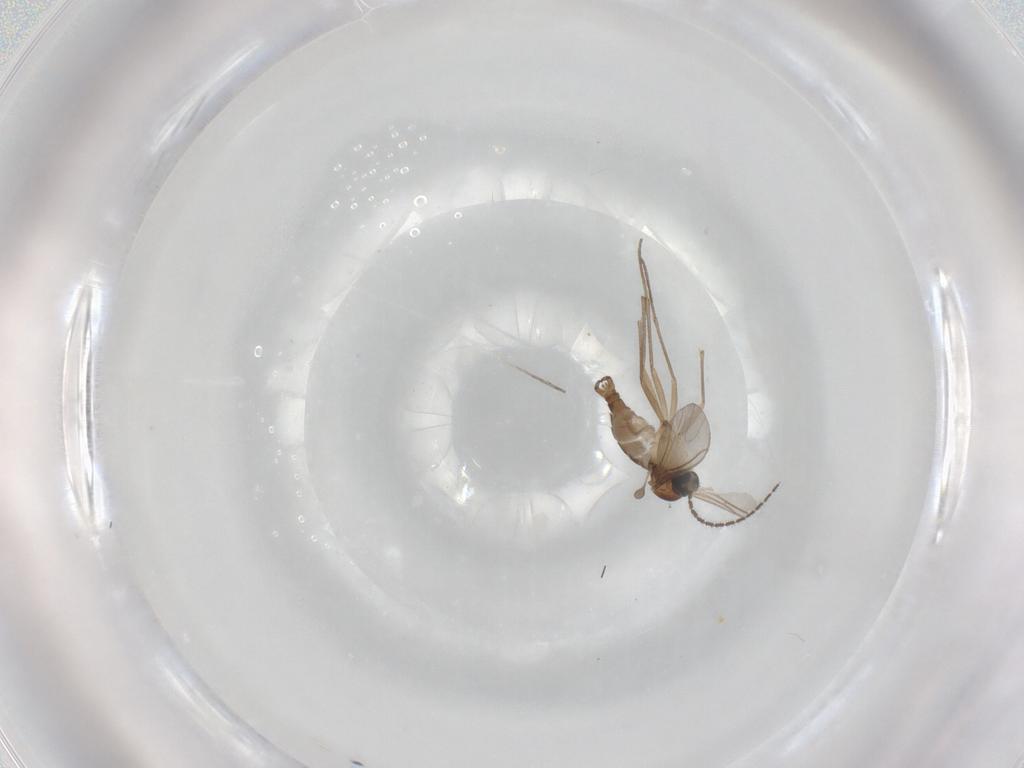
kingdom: Animalia
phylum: Arthropoda
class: Insecta
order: Diptera
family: Sciaridae
